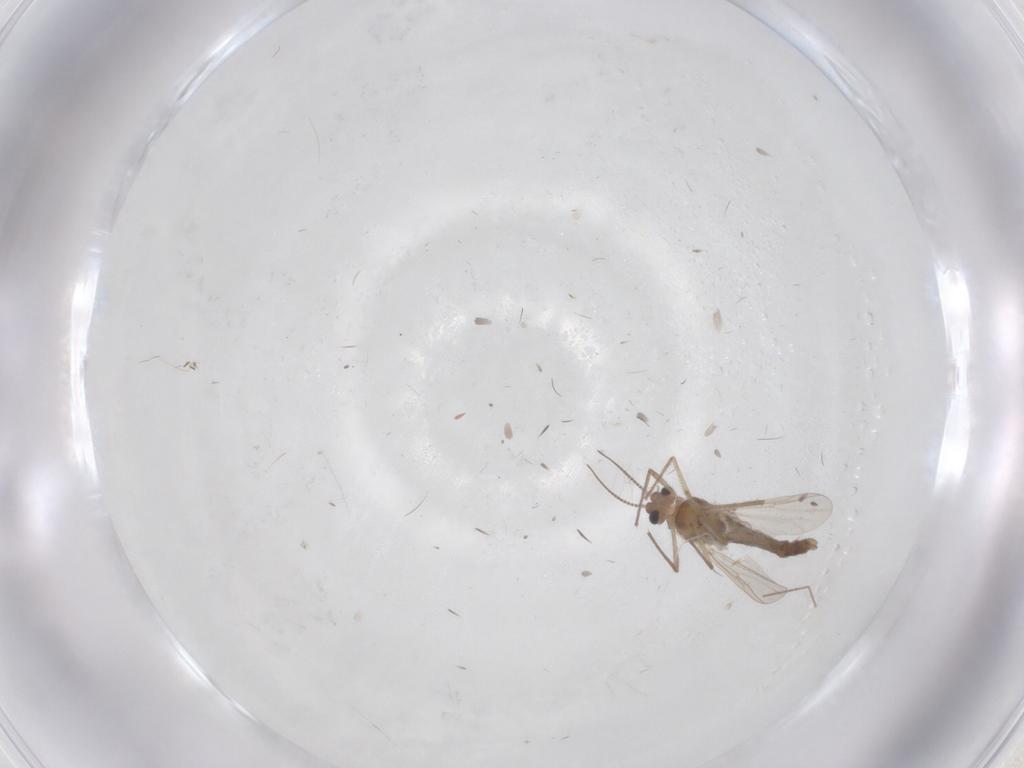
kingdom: Animalia
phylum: Arthropoda
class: Insecta
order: Diptera
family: Chironomidae
